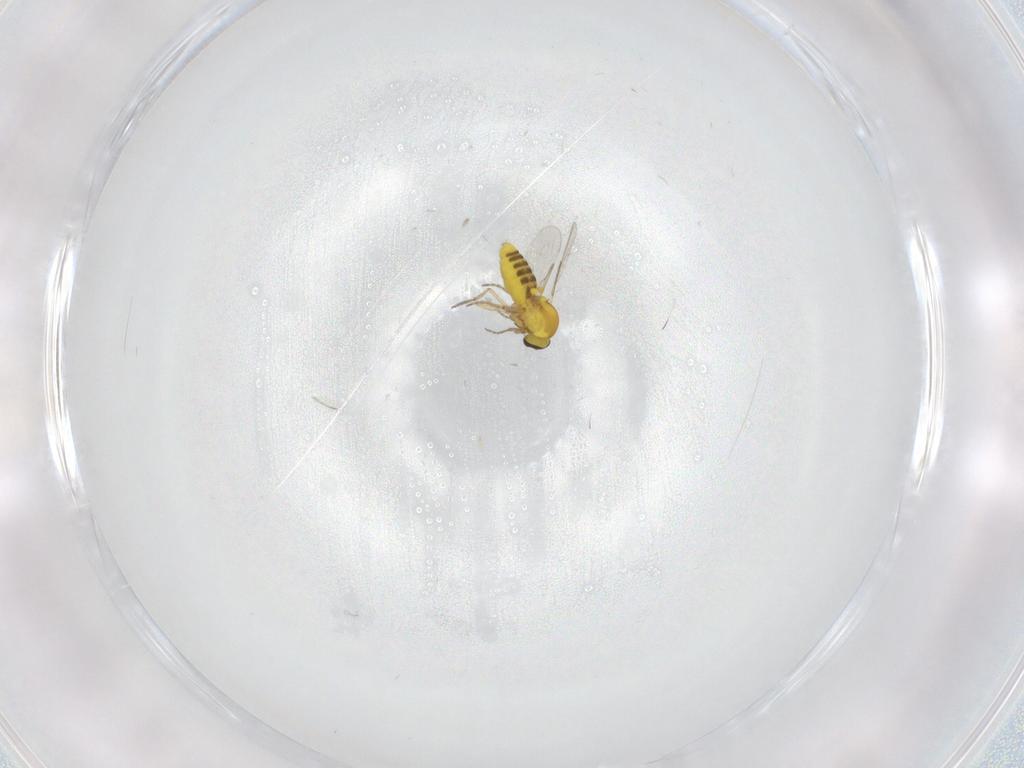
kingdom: Animalia
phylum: Arthropoda
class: Insecta
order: Diptera
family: Ceratopogonidae
